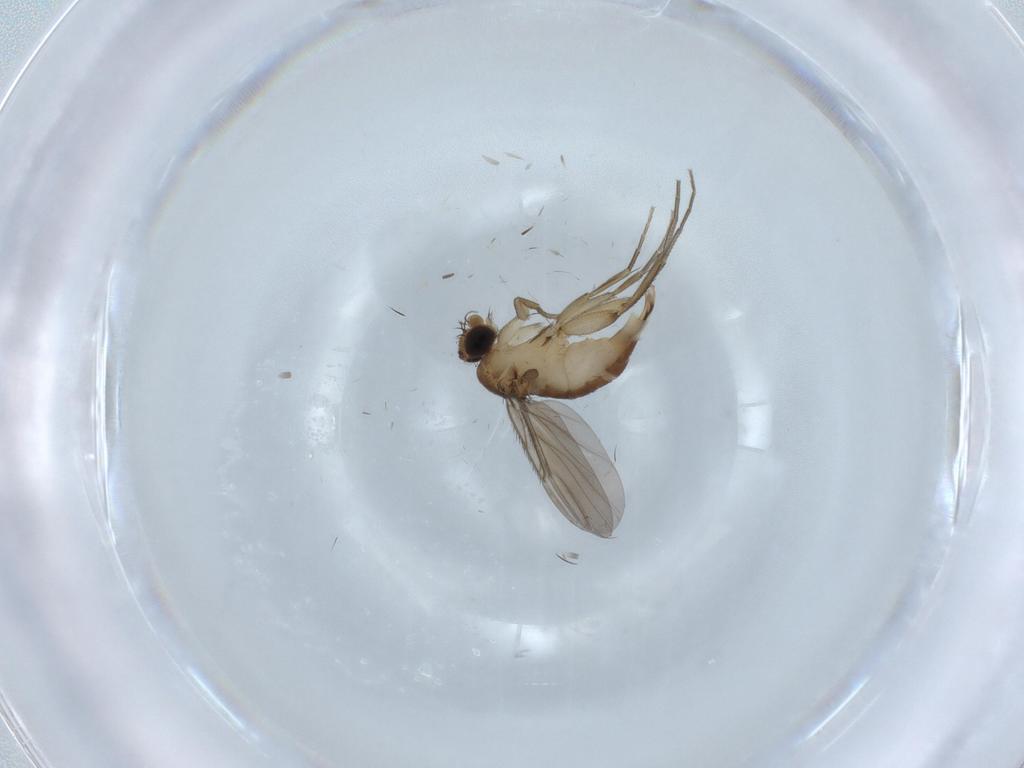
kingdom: Animalia
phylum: Arthropoda
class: Insecta
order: Diptera
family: Phoridae
